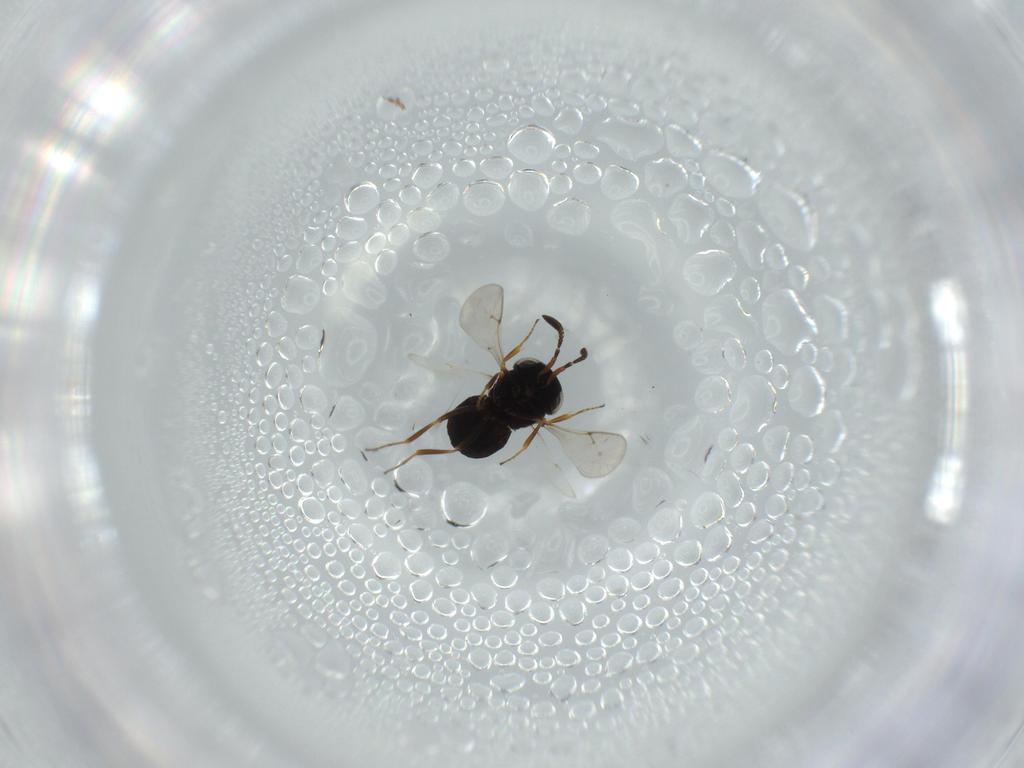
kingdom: Animalia
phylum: Arthropoda
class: Insecta
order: Hymenoptera
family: Scelionidae
